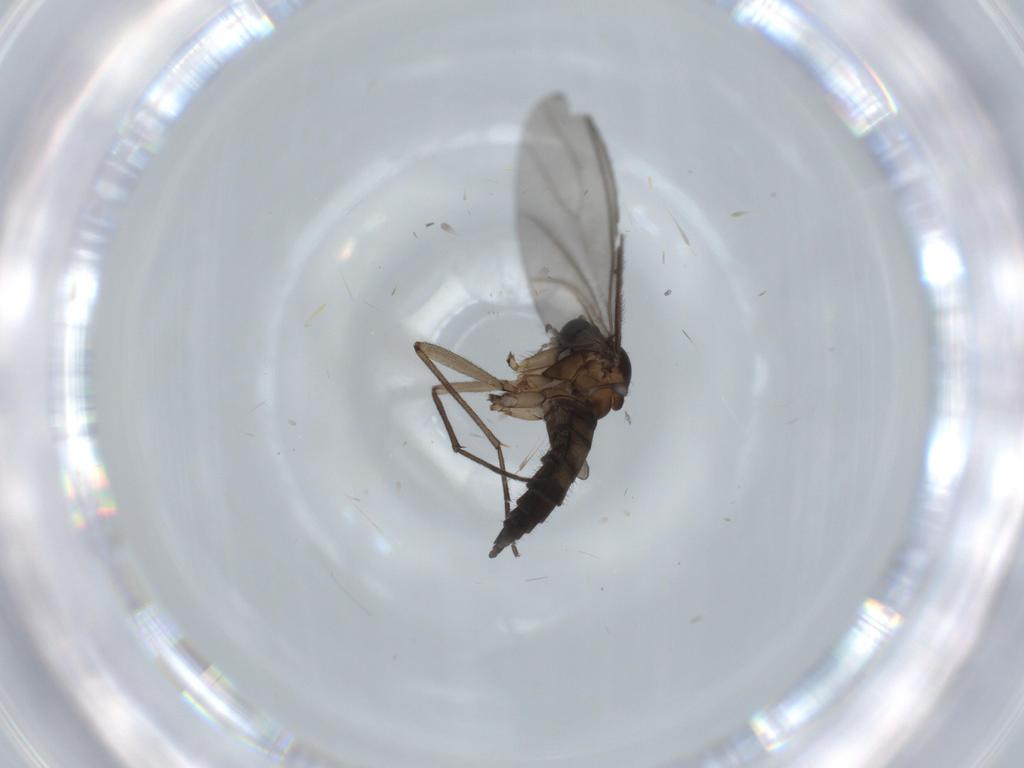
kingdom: Animalia
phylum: Arthropoda
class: Insecta
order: Diptera
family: Sciaridae
